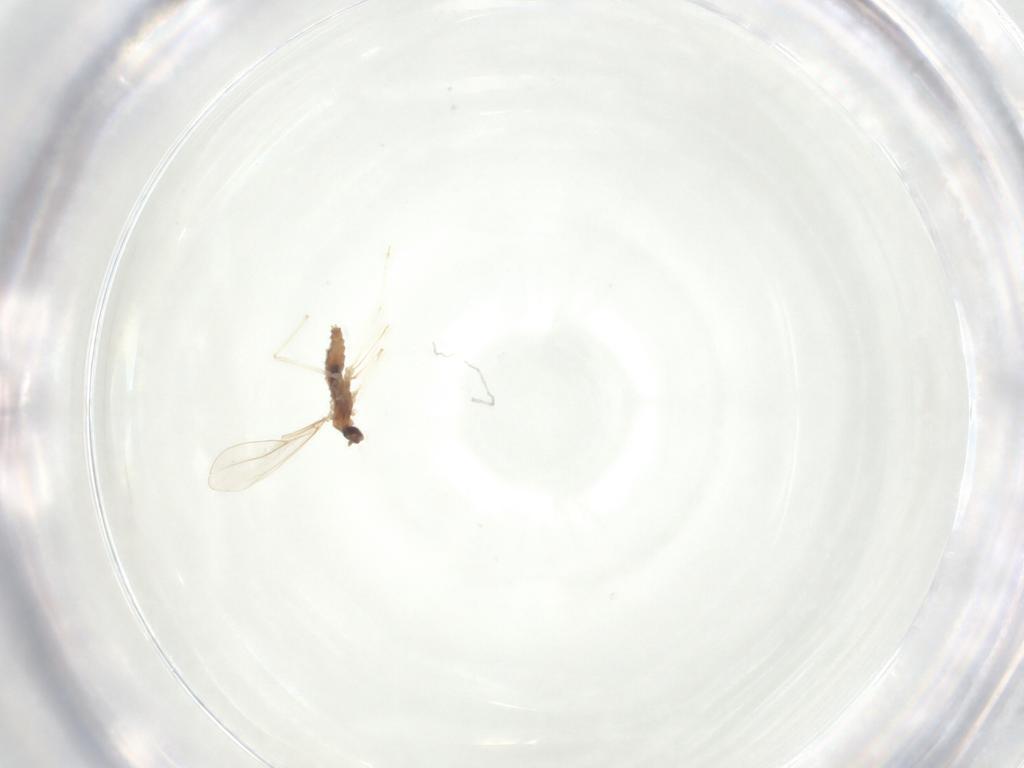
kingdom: Animalia
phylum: Arthropoda
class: Insecta
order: Diptera
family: Cecidomyiidae
